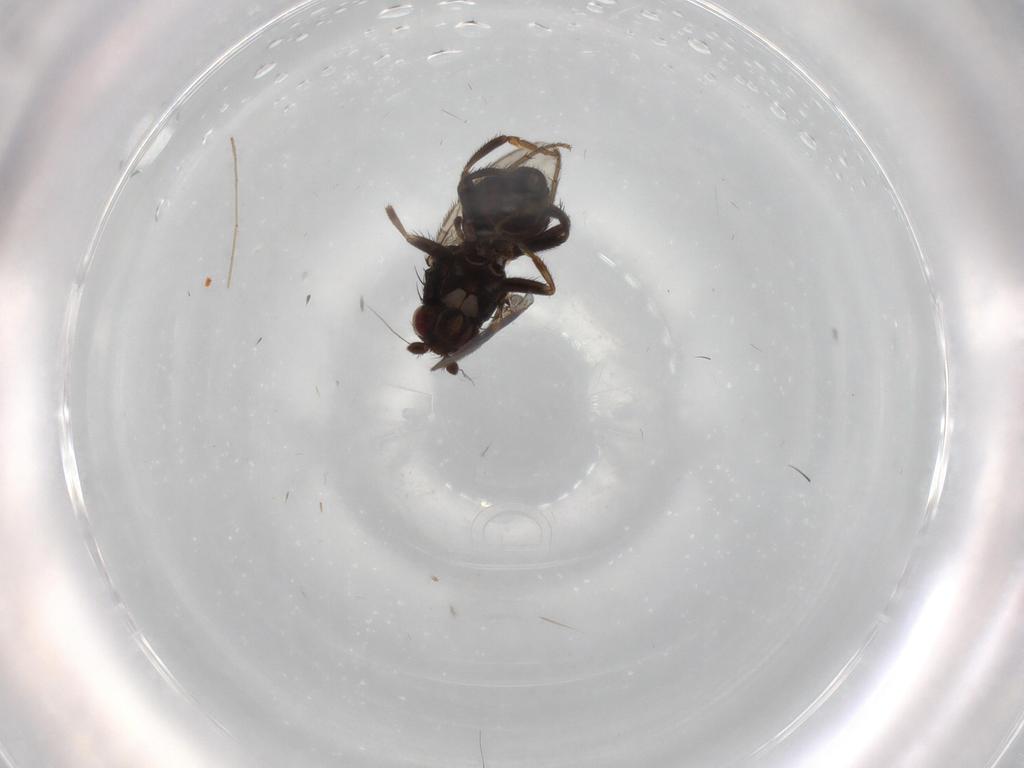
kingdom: Animalia
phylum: Arthropoda
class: Insecta
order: Diptera
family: Sphaeroceridae
